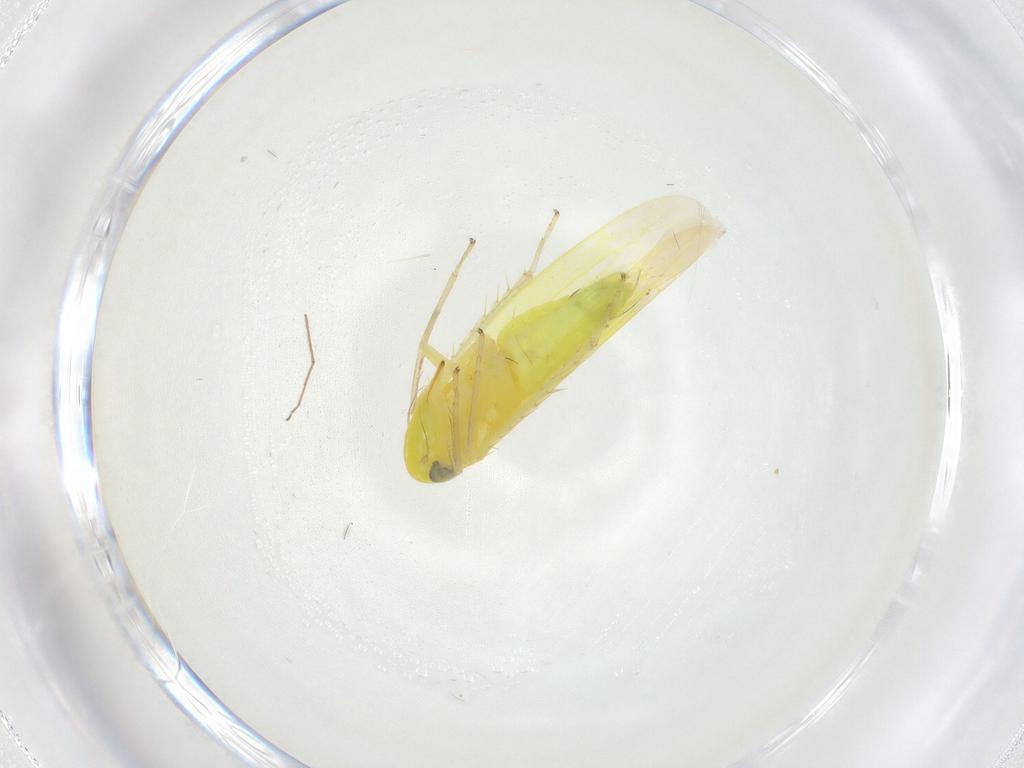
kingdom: Animalia
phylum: Arthropoda
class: Insecta
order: Hemiptera
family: Cicadellidae
